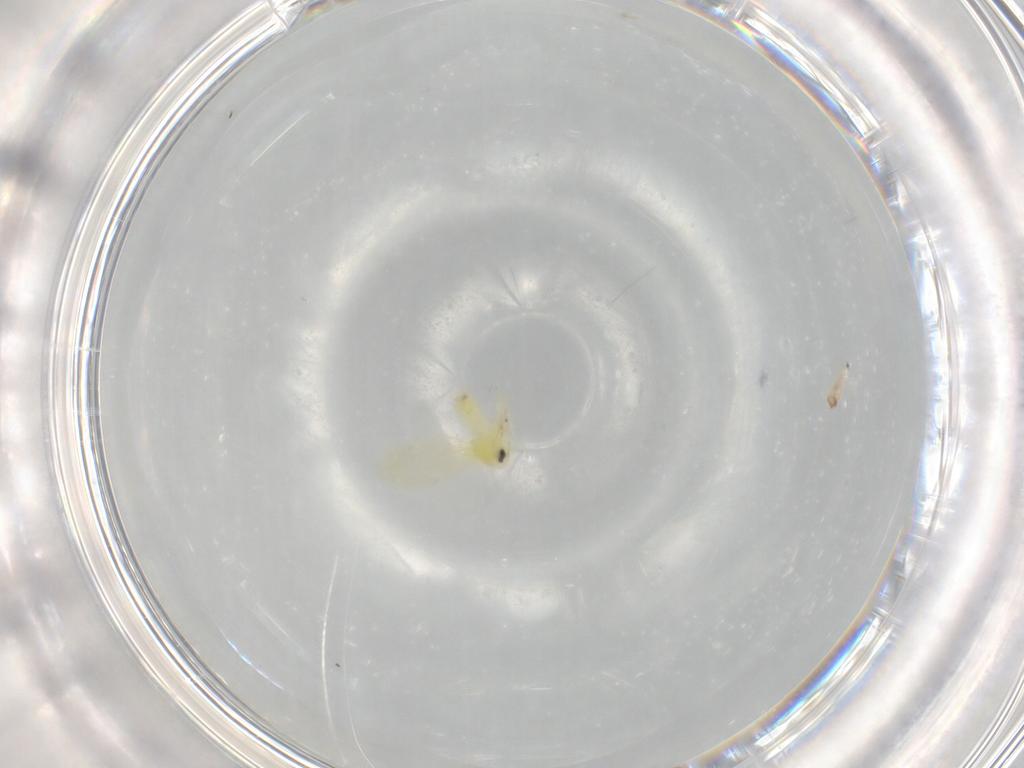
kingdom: Animalia
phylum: Arthropoda
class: Insecta
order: Hemiptera
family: Aleyrodidae
